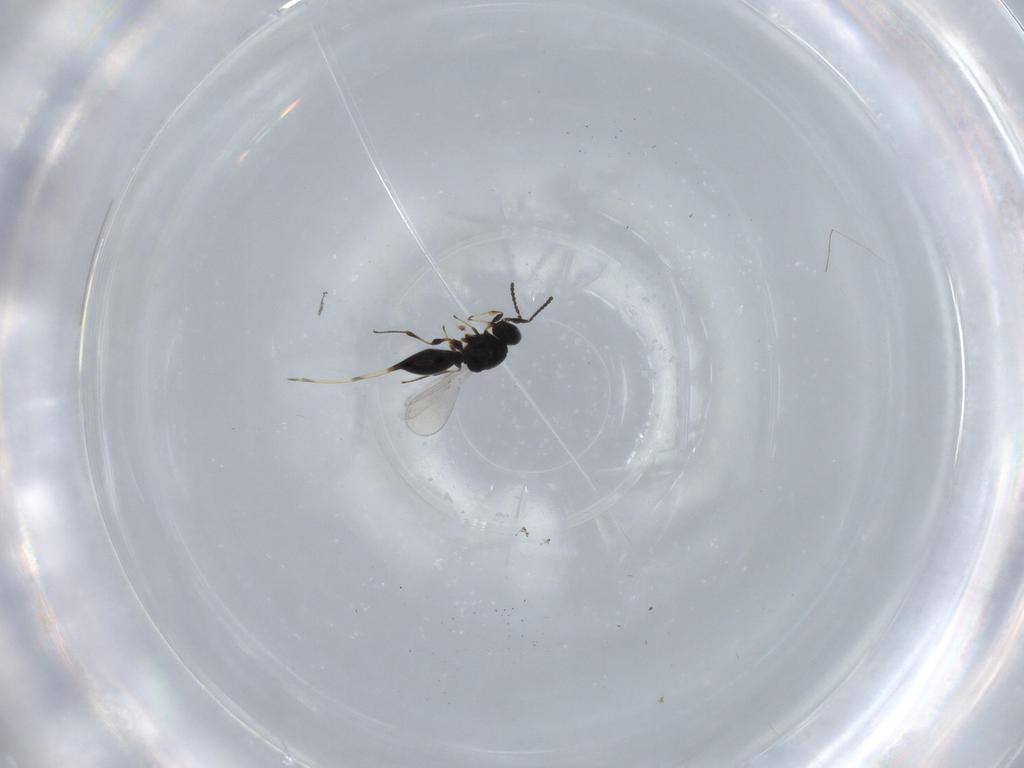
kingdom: Animalia
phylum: Arthropoda
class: Insecta
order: Hymenoptera
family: Platygastridae
